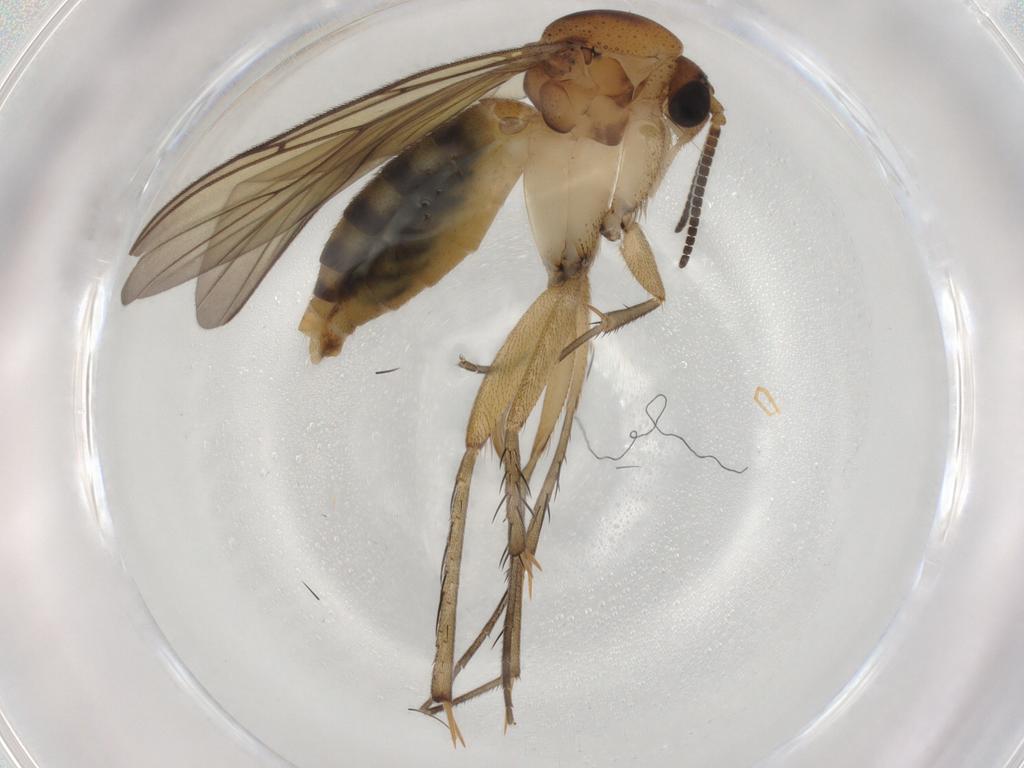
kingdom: Animalia
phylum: Arthropoda
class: Insecta
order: Diptera
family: Mycetophilidae
